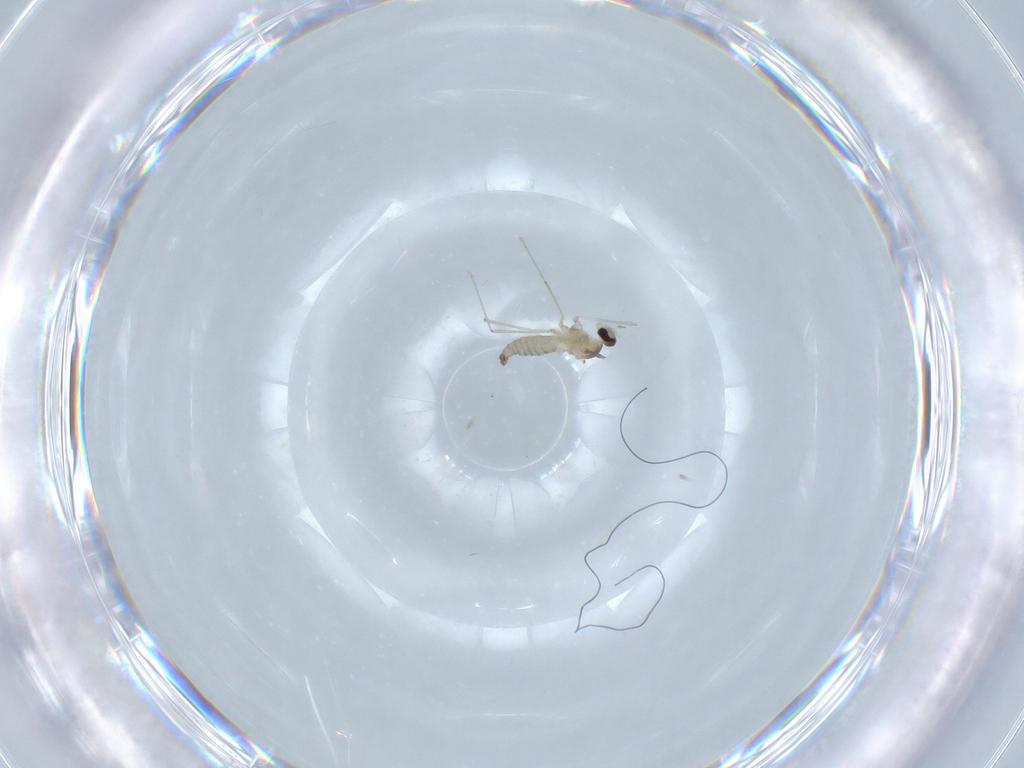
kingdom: Animalia
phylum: Arthropoda
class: Insecta
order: Diptera
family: Cecidomyiidae
